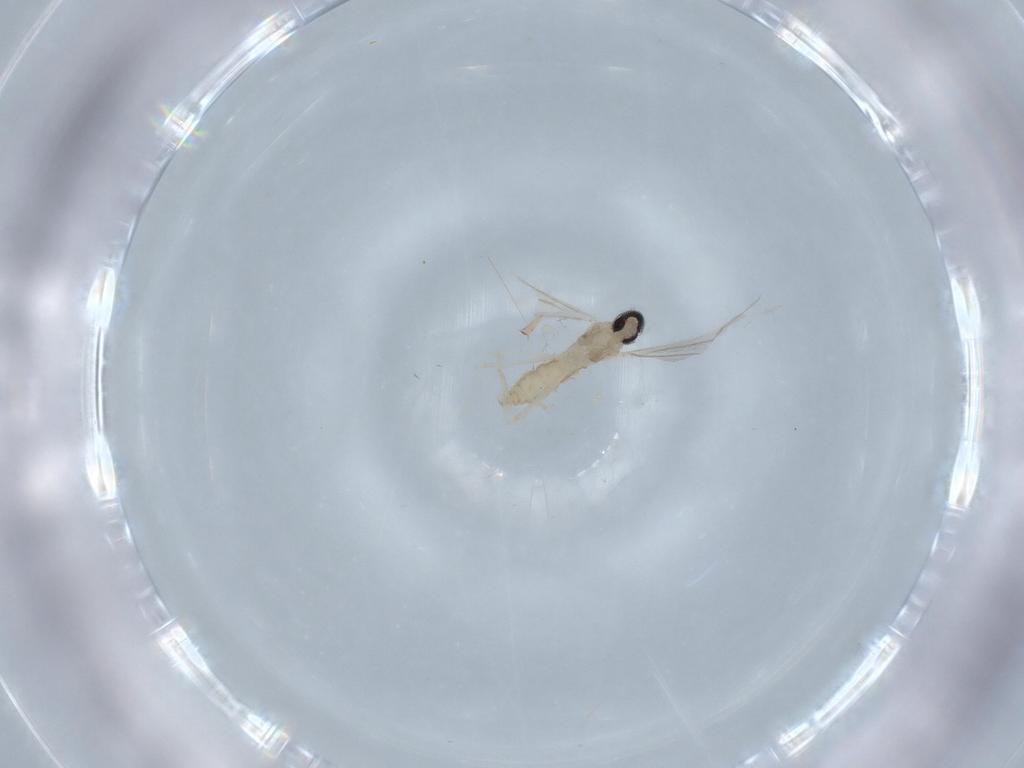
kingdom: Animalia
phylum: Arthropoda
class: Insecta
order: Diptera
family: Cecidomyiidae
